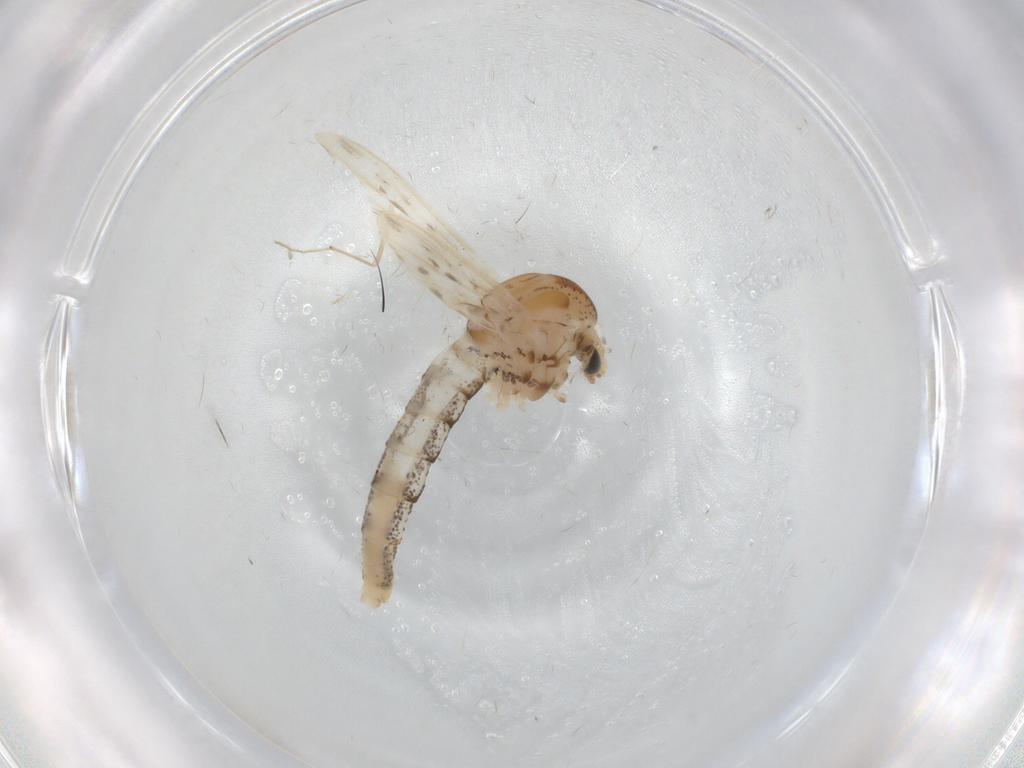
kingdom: Animalia
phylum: Arthropoda
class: Insecta
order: Diptera
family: Chaoboridae
